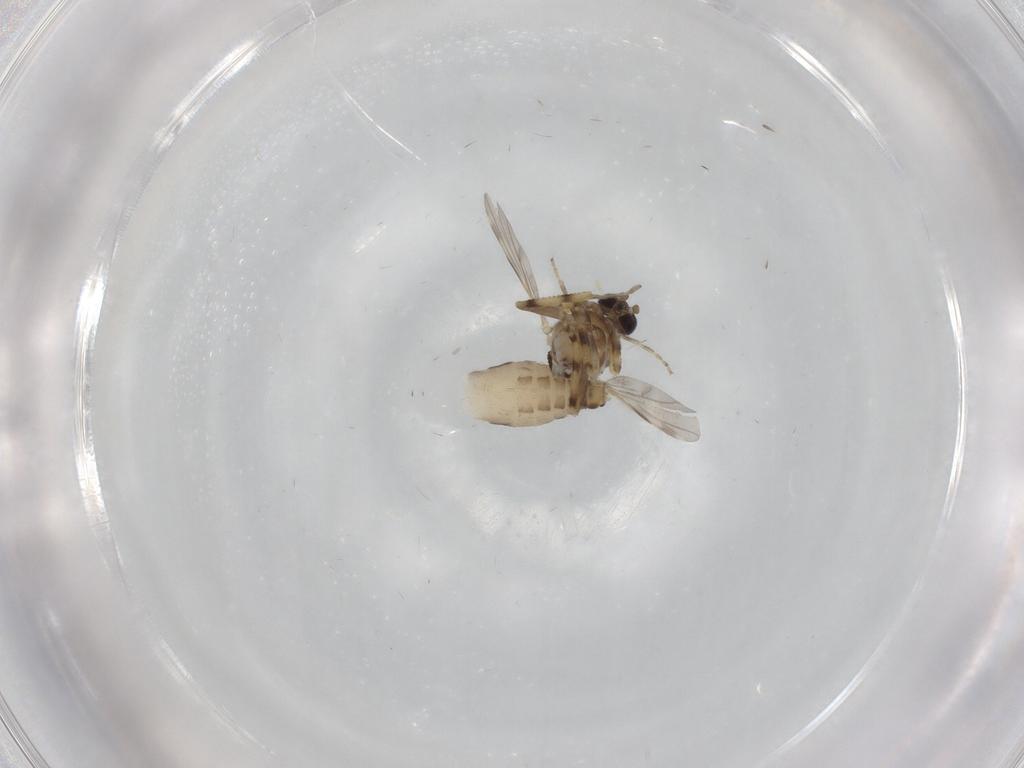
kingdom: Animalia
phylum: Arthropoda
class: Insecta
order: Diptera
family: Ceratopogonidae
